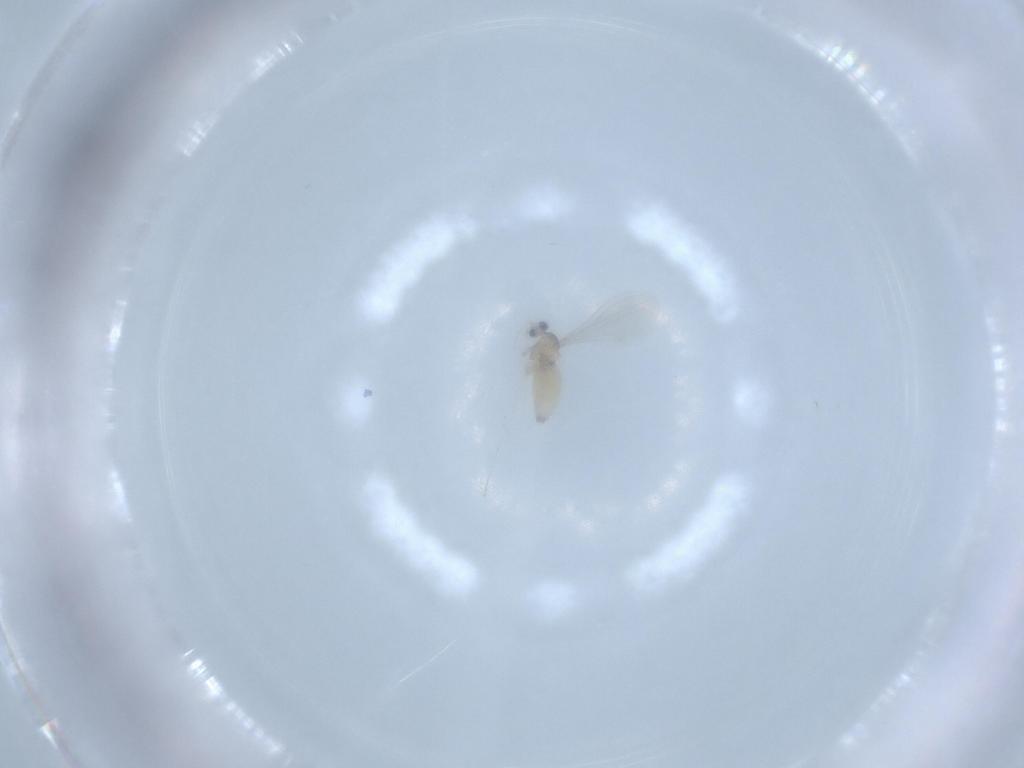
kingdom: Animalia
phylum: Arthropoda
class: Insecta
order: Diptera
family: Cecidomyiidae
